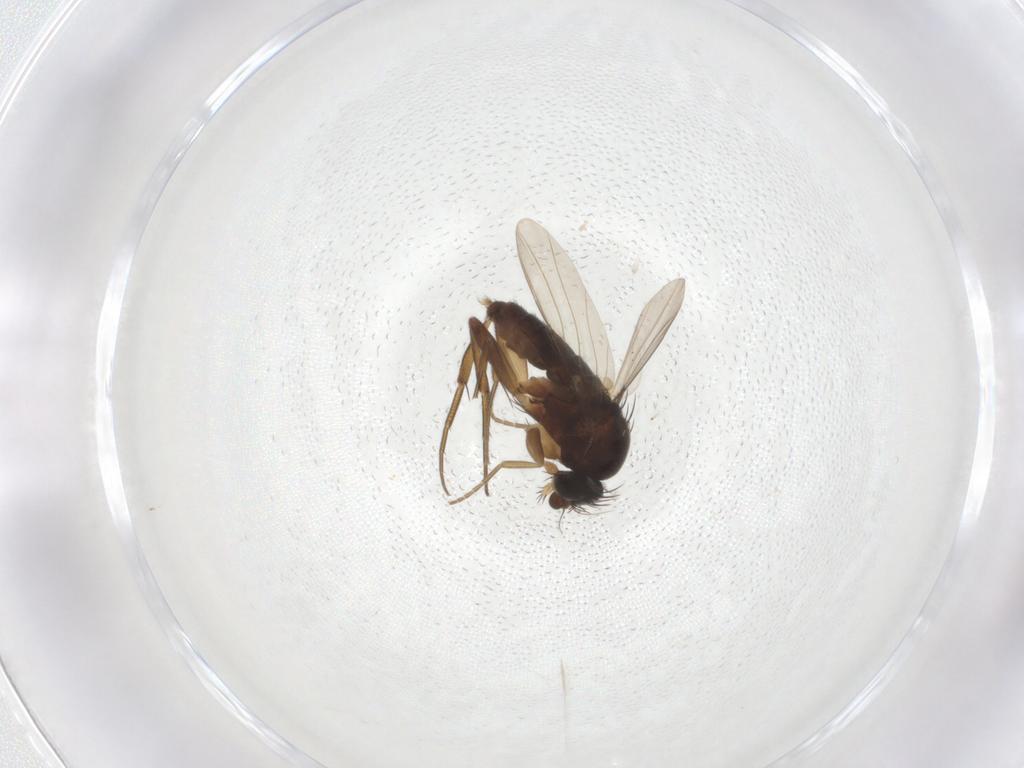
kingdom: Animalia
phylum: Arthropoda
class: Insecta
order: Diptera
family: Phoridae
